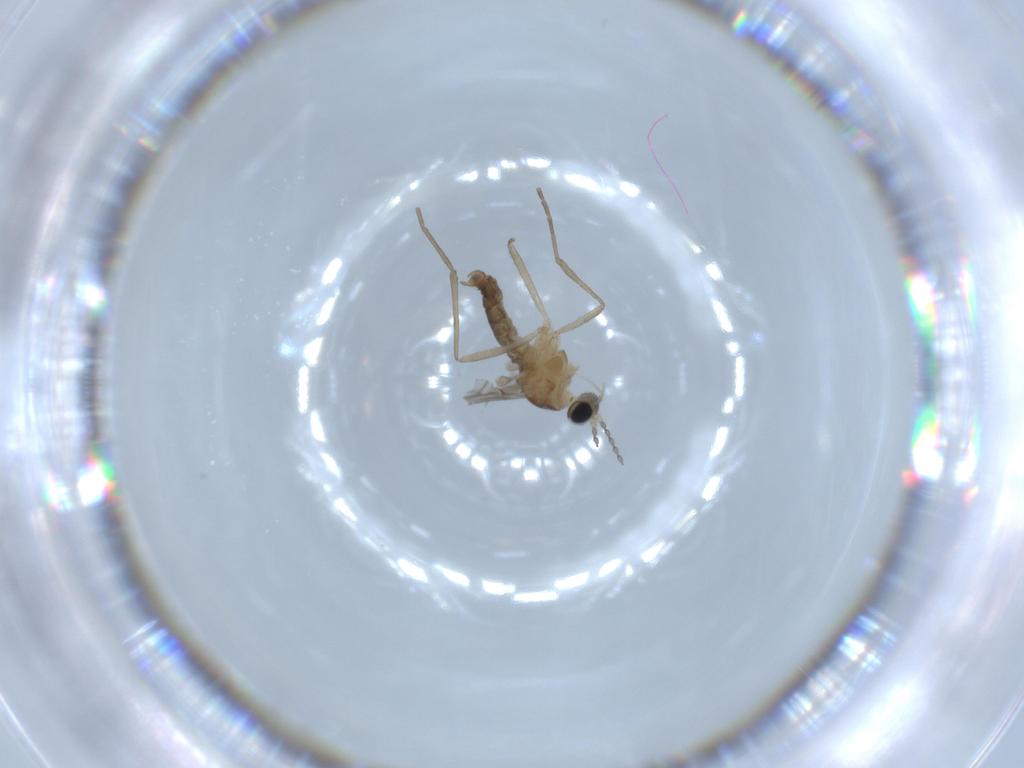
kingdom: Animalia
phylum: Arthropoda
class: Insecta
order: Diptera
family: Cecidomyiidae
